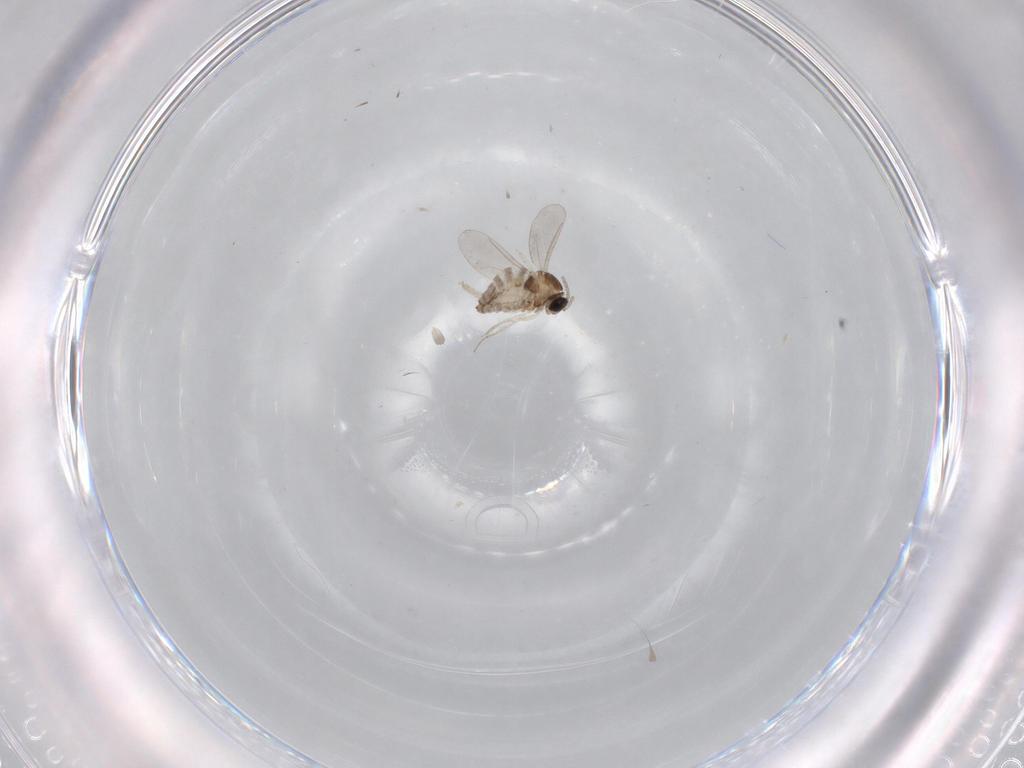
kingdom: Animalia
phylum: Arthropoda
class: Insecta
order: Diptera
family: Cecidomyiidae
